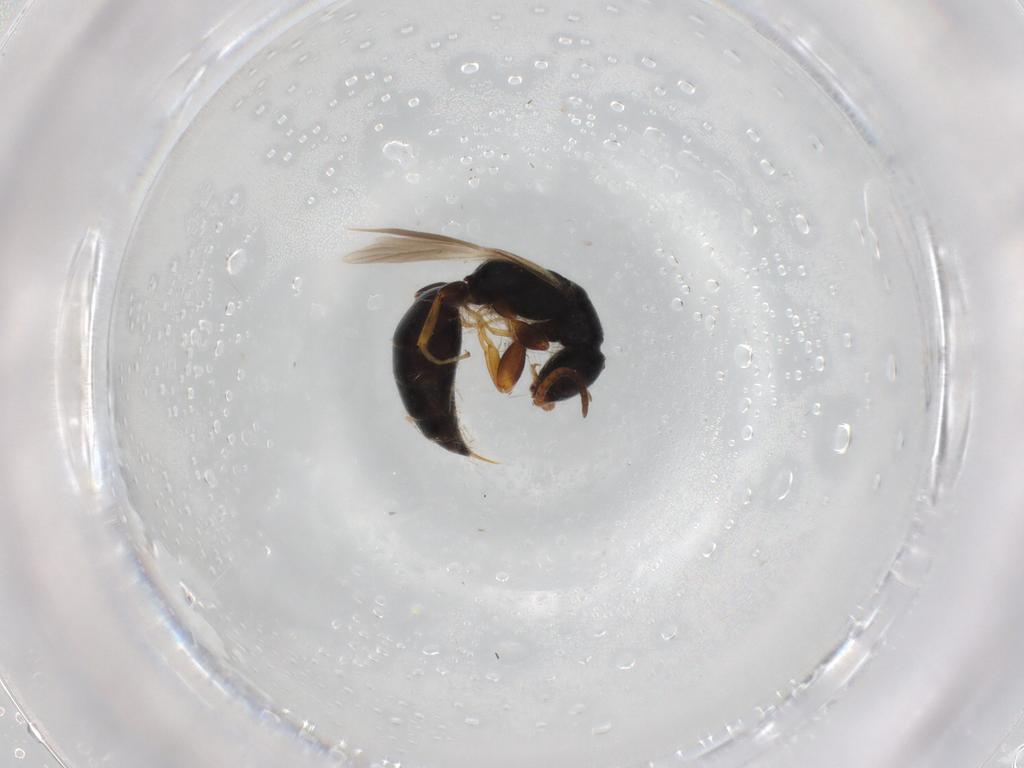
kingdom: Animalia
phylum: Arthropoda
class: Insecta
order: Hymenoptera
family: Bethylidae
